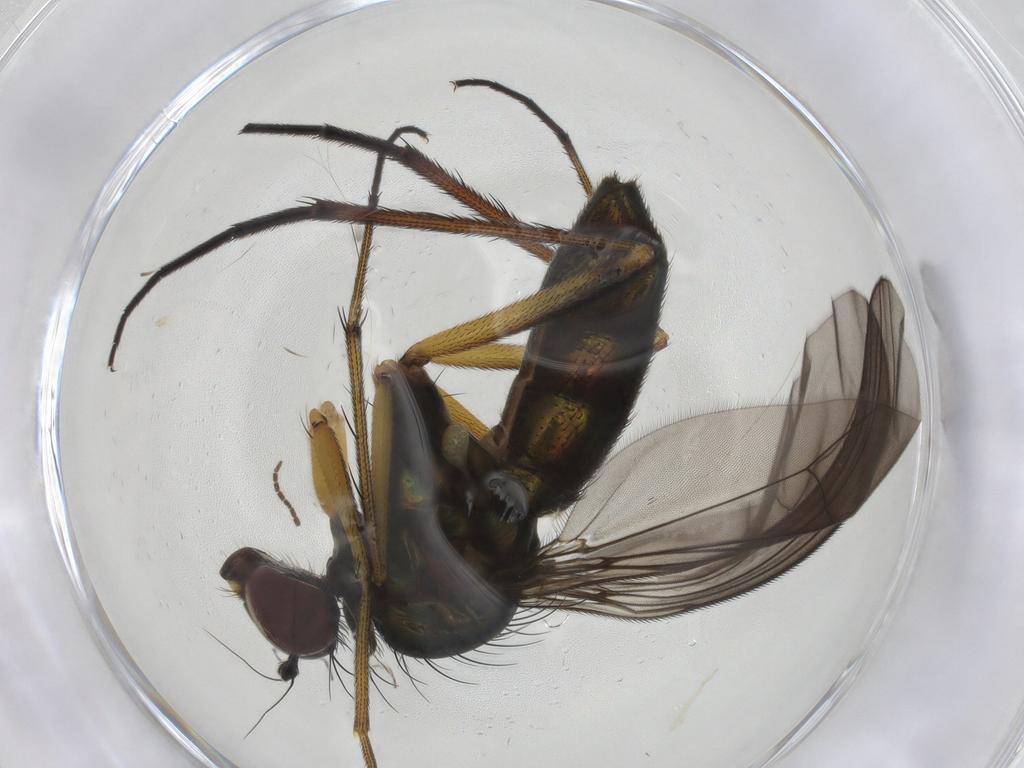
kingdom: Animalia
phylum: Arthropoda
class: Insecta
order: Diptera
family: Dolichopodidae
